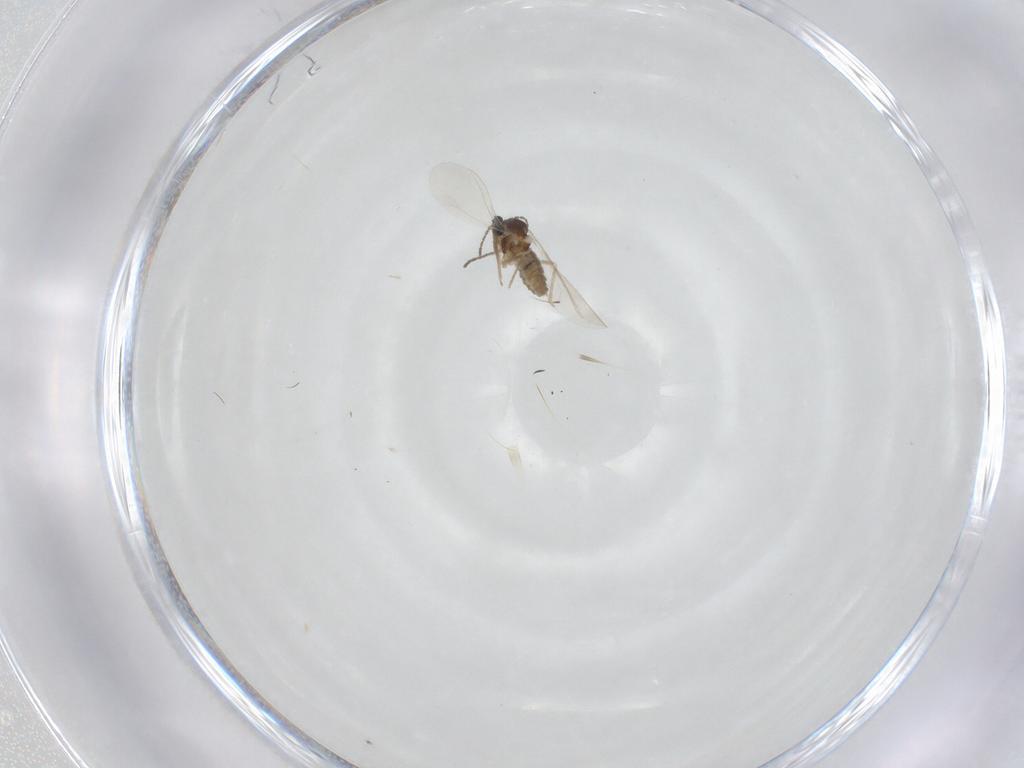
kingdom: Animalia
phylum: Arthropoda
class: Insecta
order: Diptera
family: Cecidomyiidae
